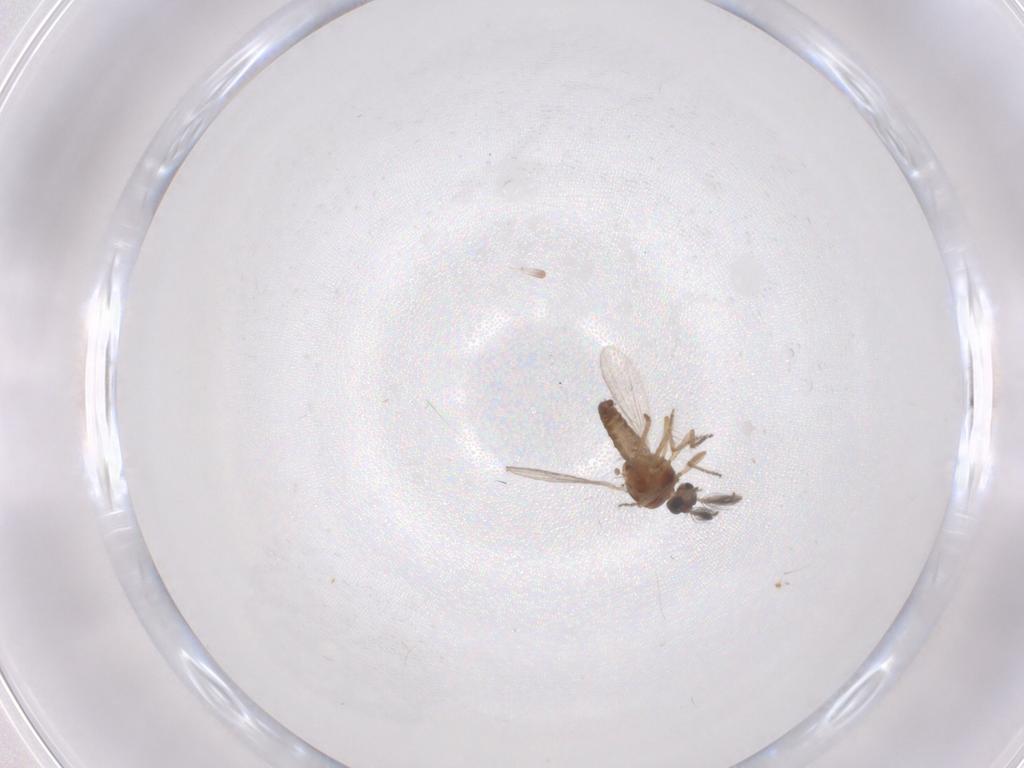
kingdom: Animalia
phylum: Arthropoda
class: Insecta
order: Diptera
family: Ceratopogonidae
